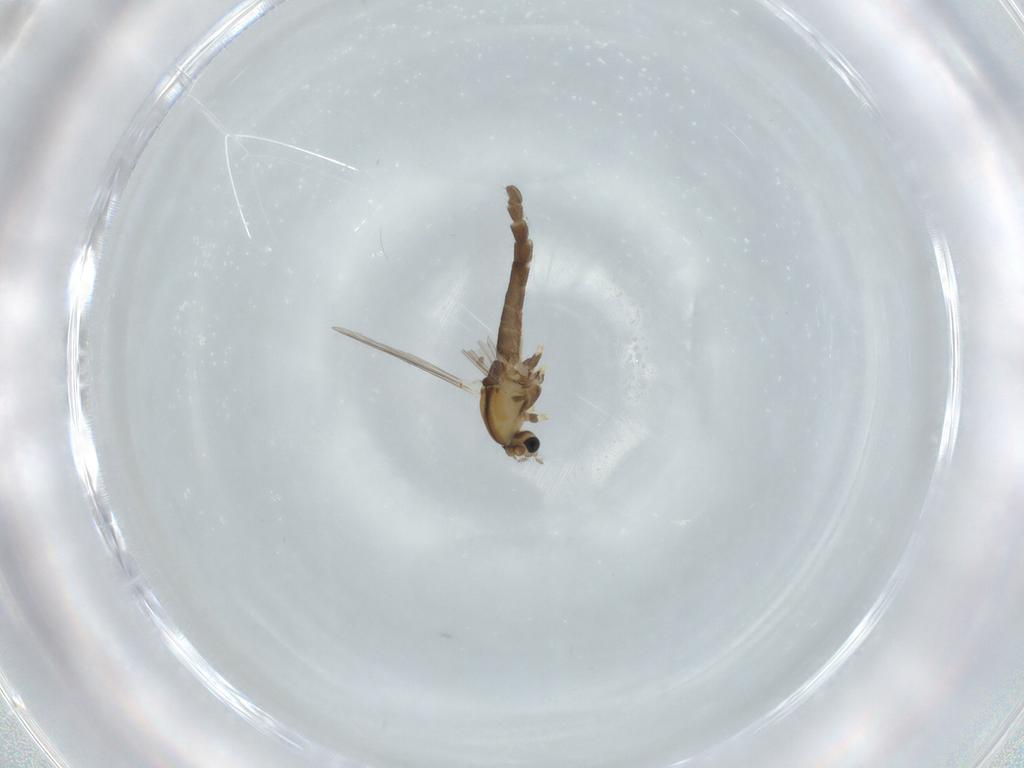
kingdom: Animalia
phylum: Arthropoda
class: Insecta
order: Diptera
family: Chironomidae
